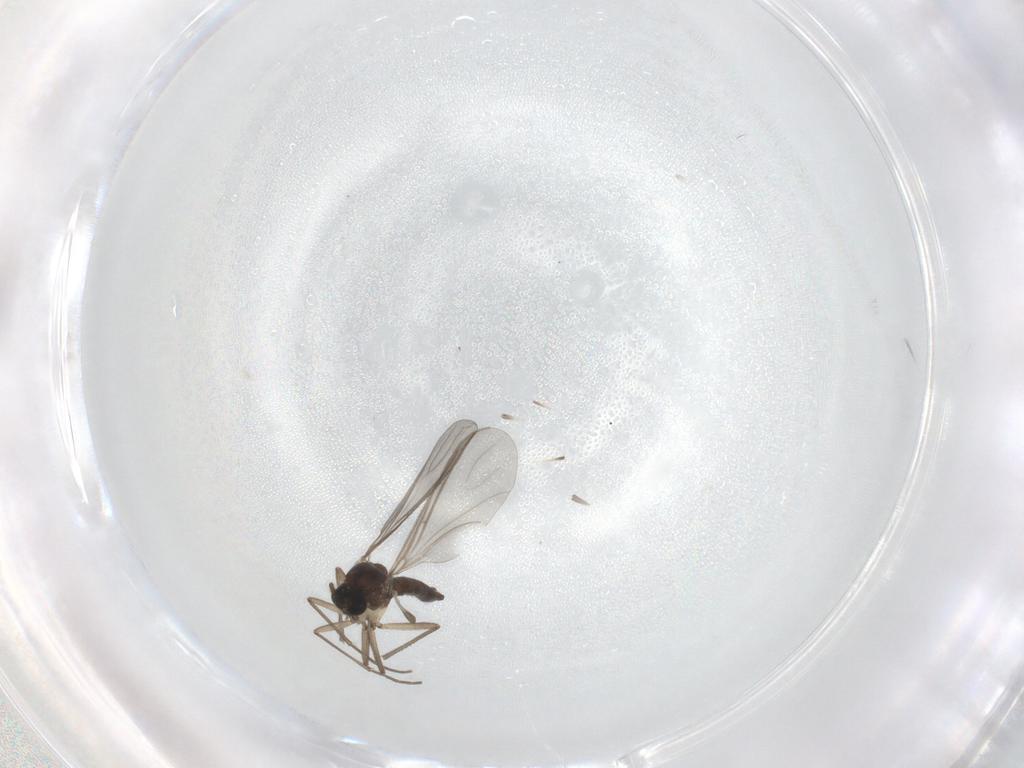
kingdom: Animalia
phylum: Arthropoda
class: Insecta
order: Diptera
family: Sciaridae
